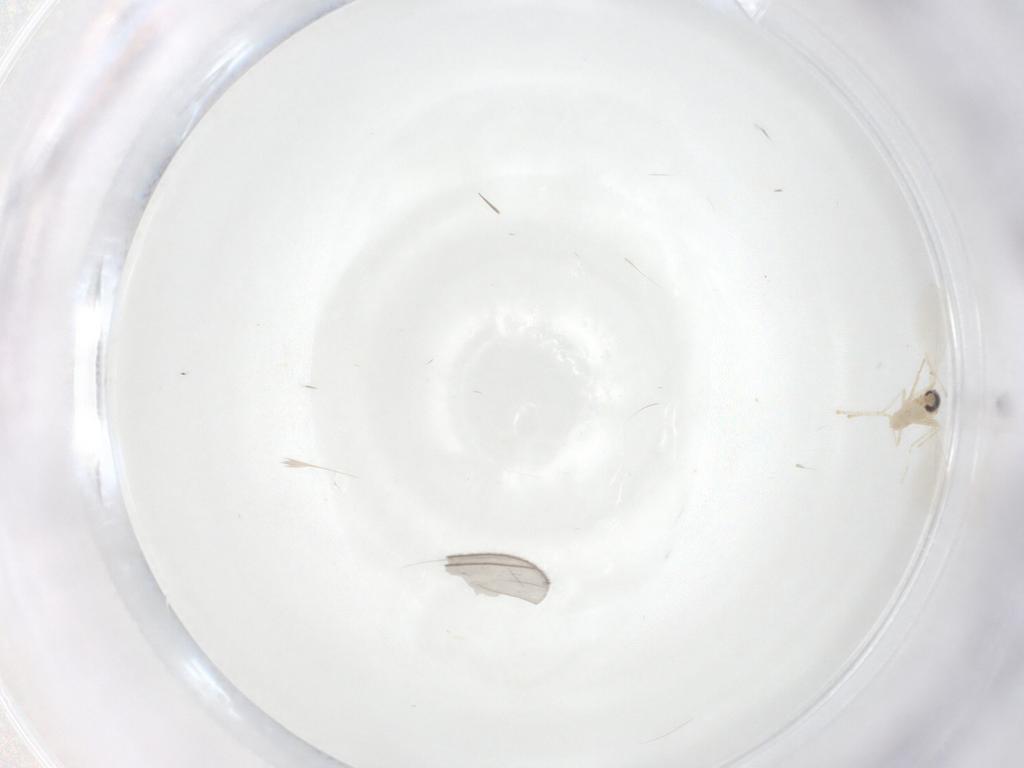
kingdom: Animalia
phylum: Arthropoda
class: Insecta
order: Diptera
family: Cecidomyiidae
